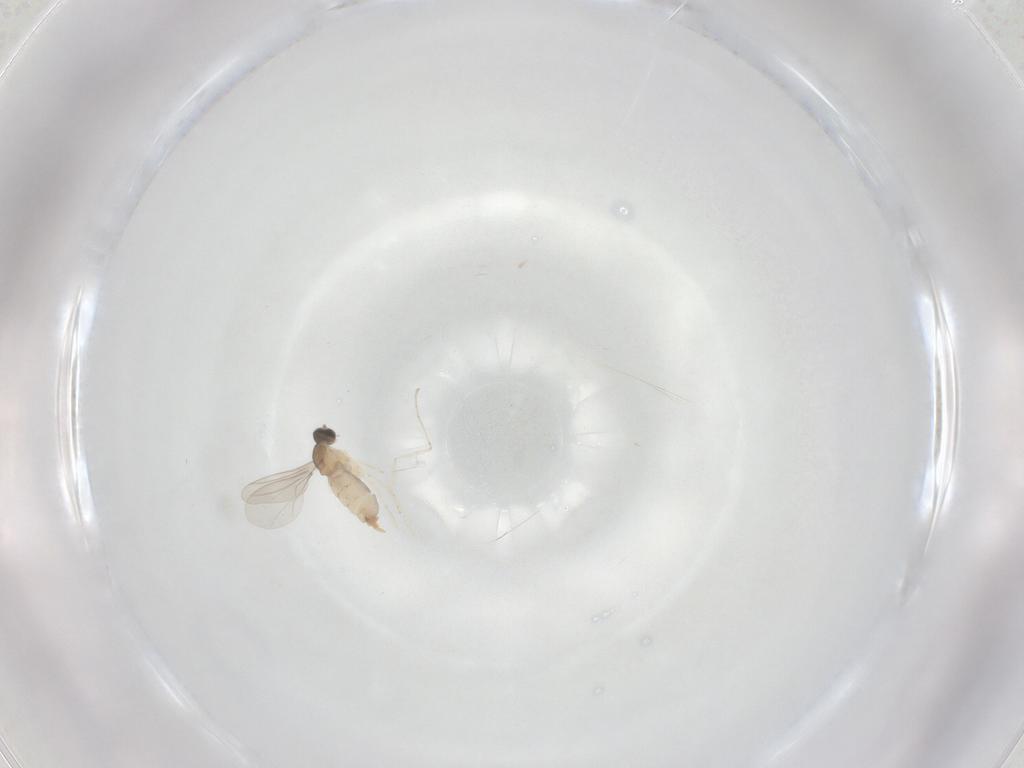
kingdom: Animalia
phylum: Arthropoda
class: Insecta
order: Diptera
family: Cecidomyiidae
